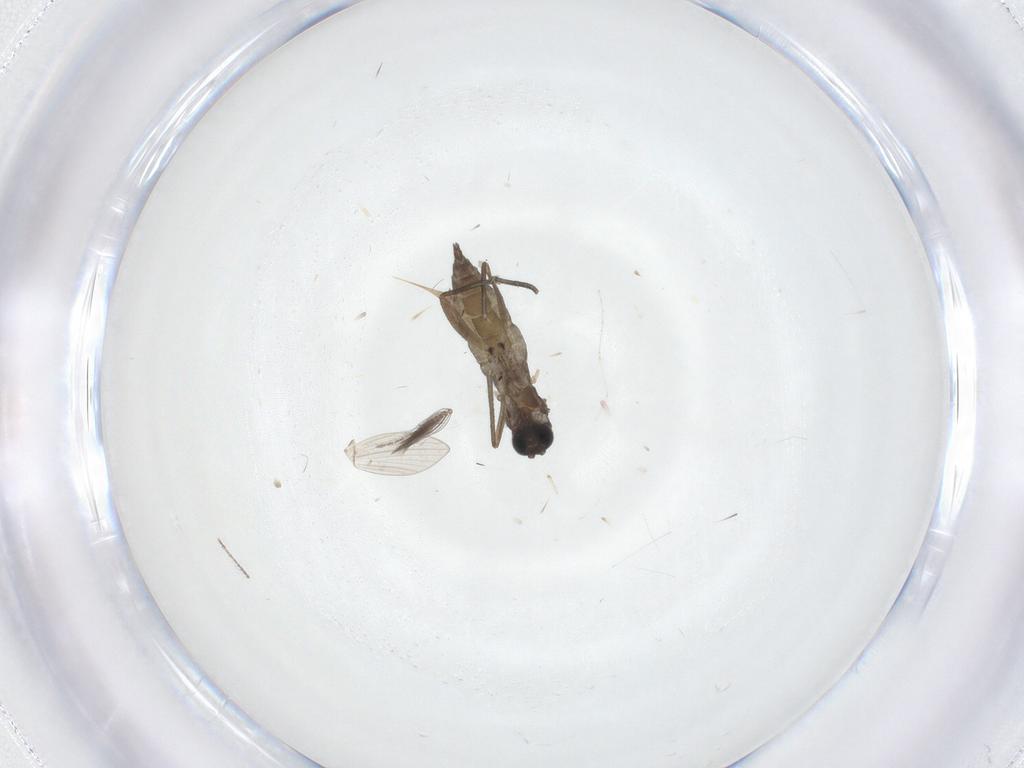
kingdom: Animalia
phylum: Arthropoda
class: Insecta
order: Diptera
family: Sciaridae
